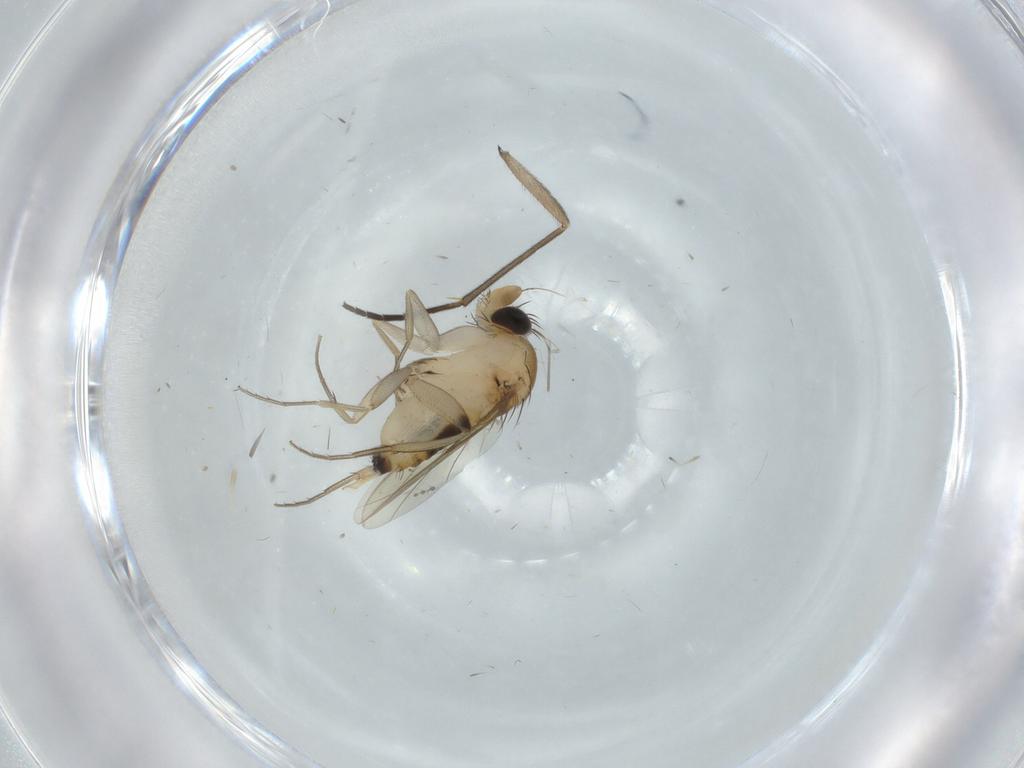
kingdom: Animalia
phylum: Arthropoda
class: Insecta
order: Diptera
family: Phoridae
